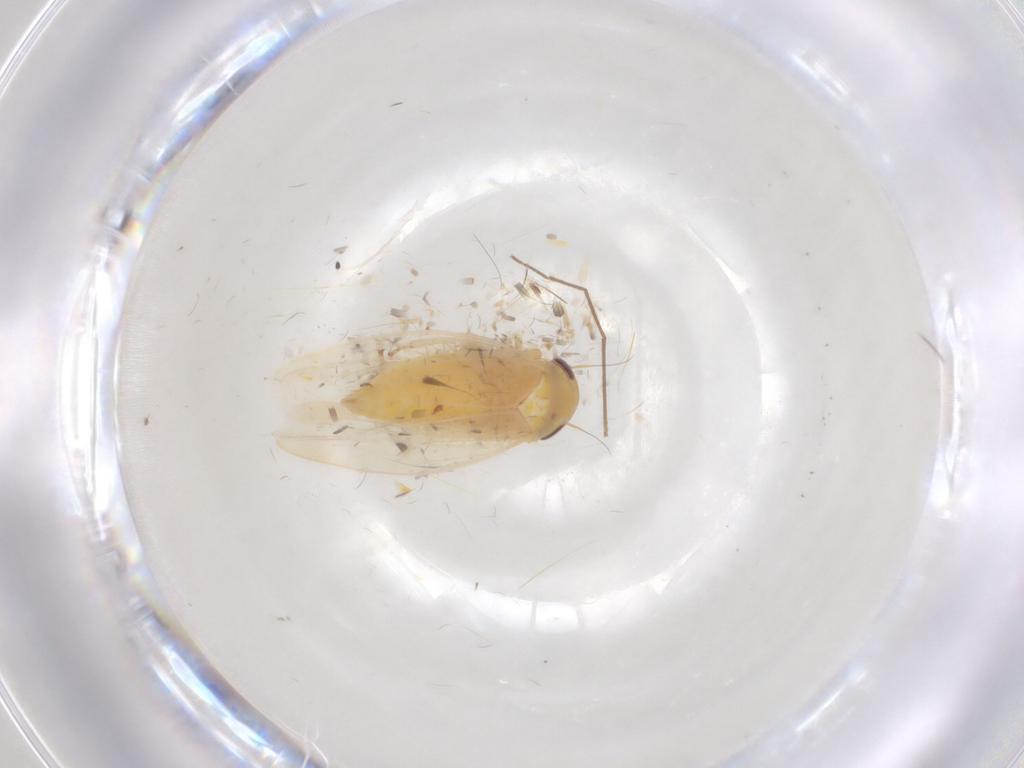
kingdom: Animalia
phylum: Arthropoda
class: Insecta
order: Hemiptera
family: Cicadellidae
